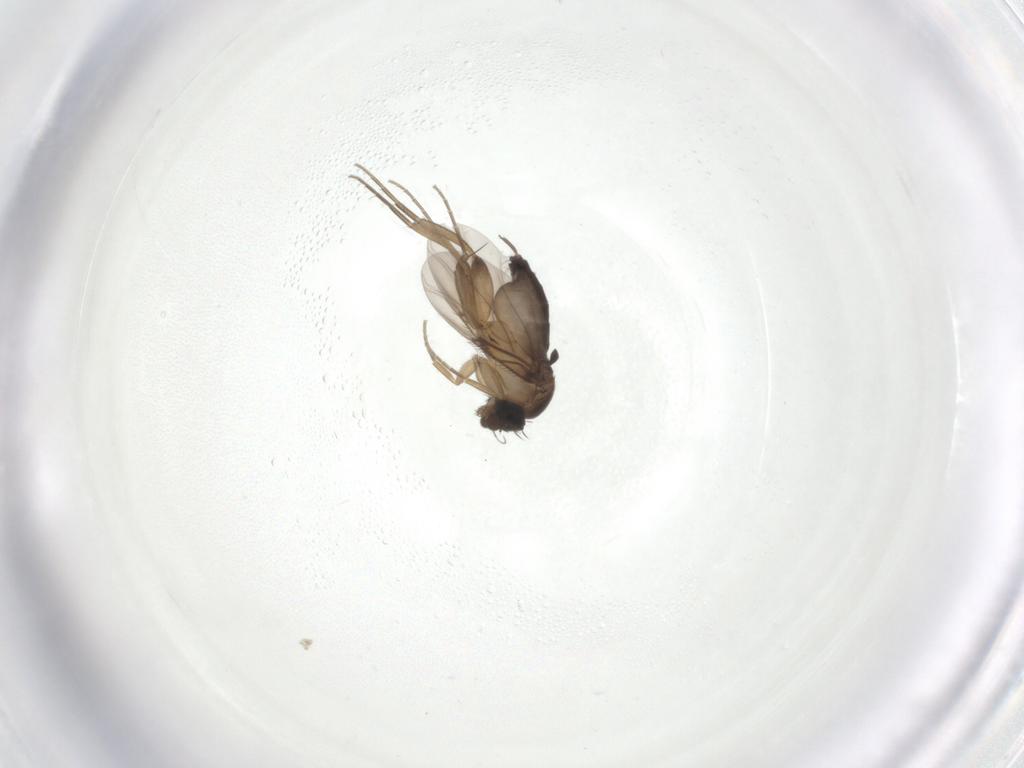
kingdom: Animalia
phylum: Arthropoda
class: Insecta
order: Diptera
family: Phoridae
